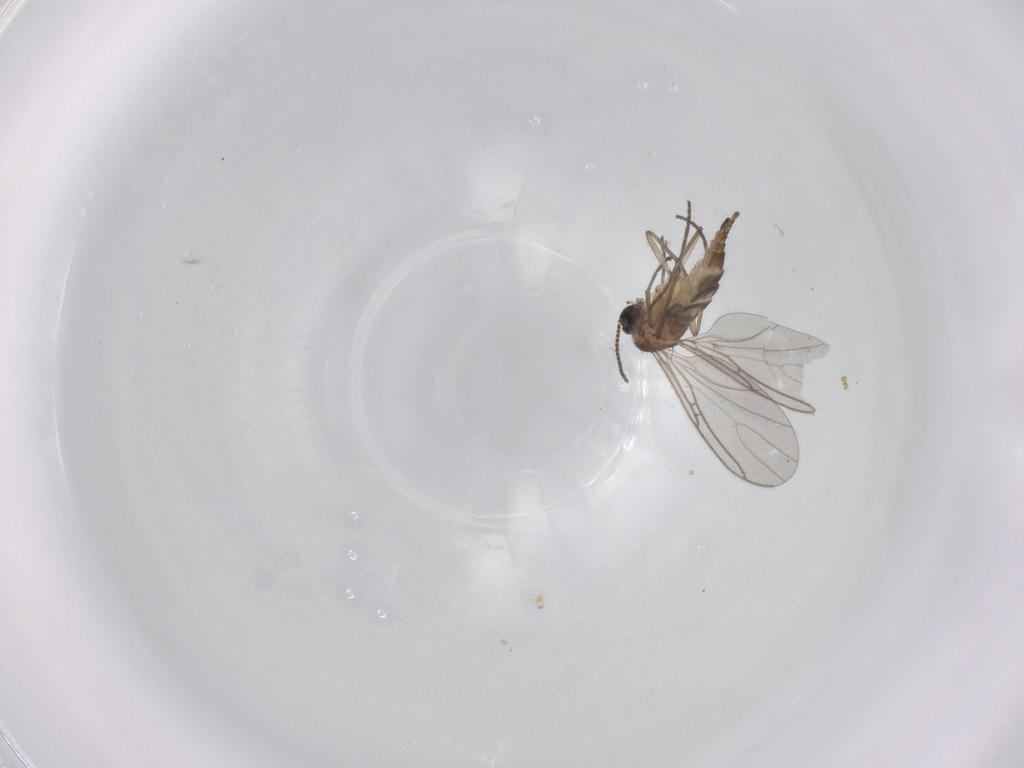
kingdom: Animalia
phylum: Arthropoda
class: Insecta
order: Diptera
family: Sciaridae
